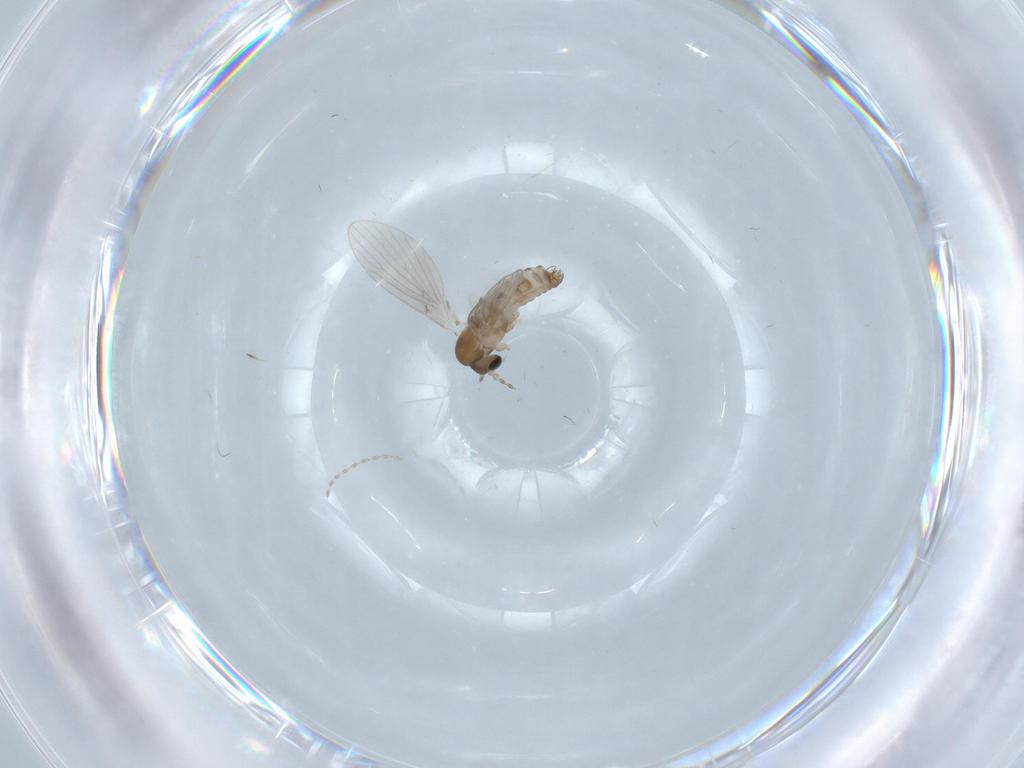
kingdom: Animalia
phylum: Arthropoda
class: Insecta
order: Diptera
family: Cecidomyiidae
